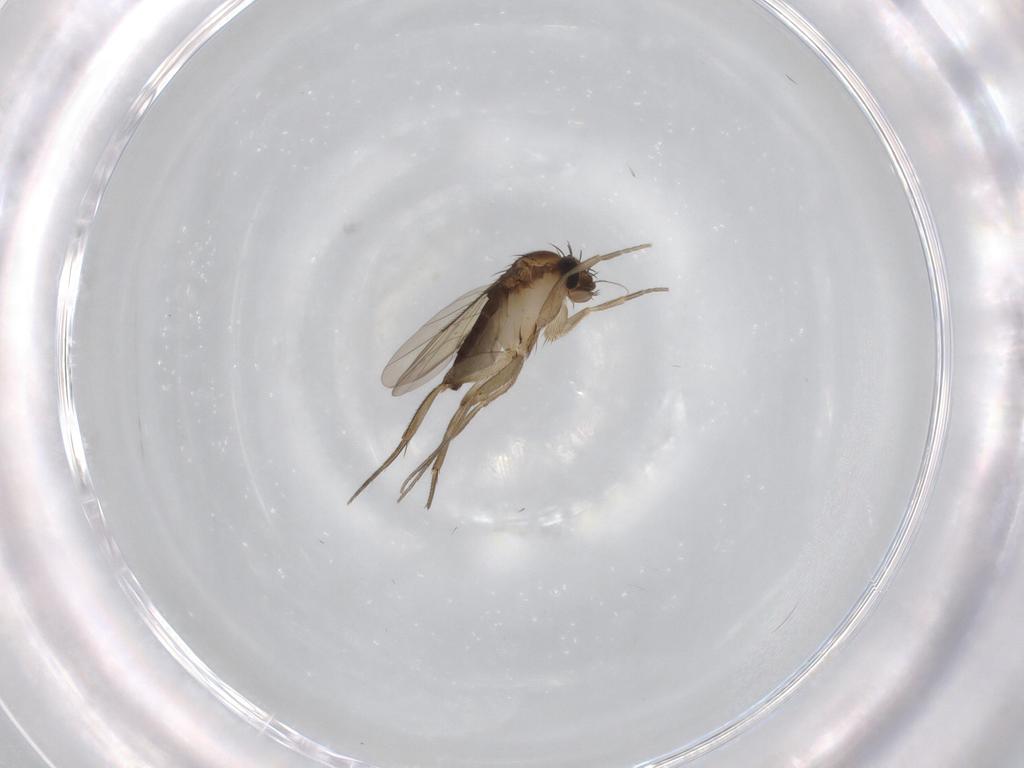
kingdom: Animalia
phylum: Arthropoda
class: Insecta
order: Diptera
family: Phoridae
